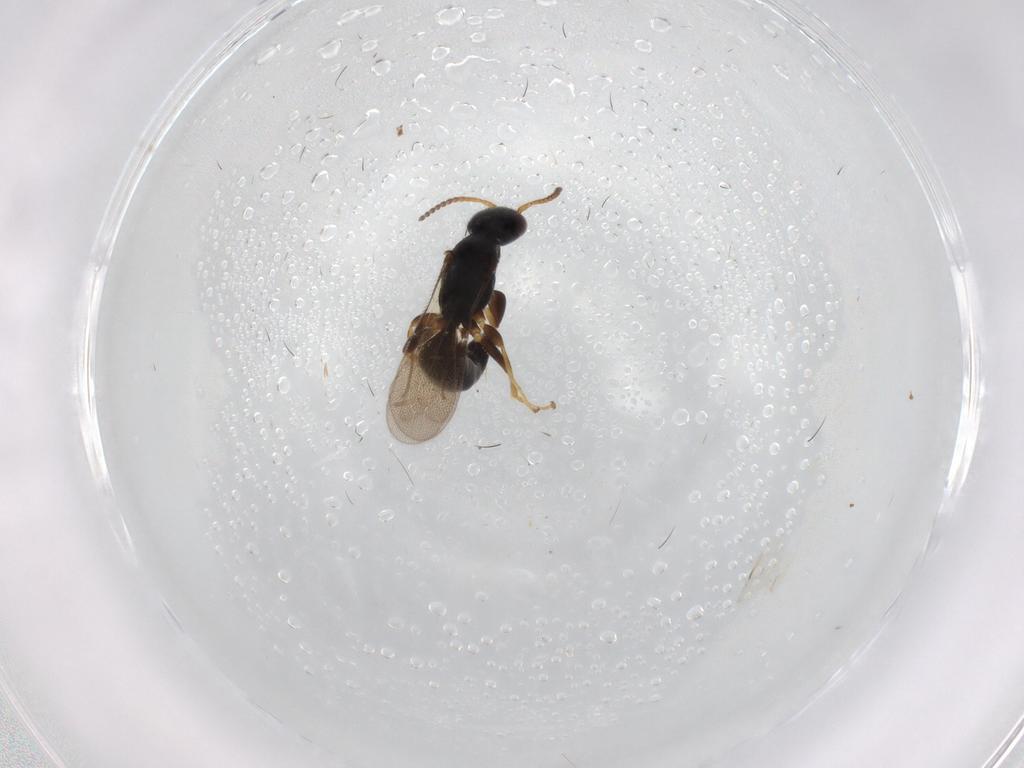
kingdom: Animalia
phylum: Arthropoda
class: Insecta
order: Hymenoptera
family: Bethylidae
